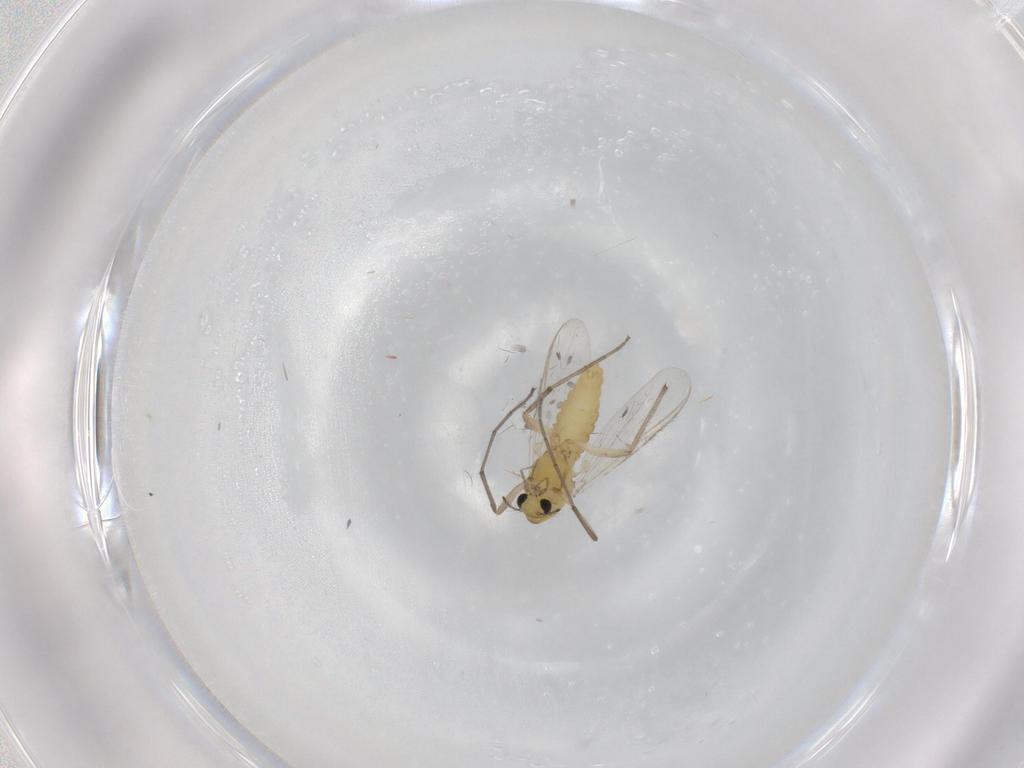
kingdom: Animalia
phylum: Arthropoda
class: Insecta
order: Diptera
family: Chironomidae
